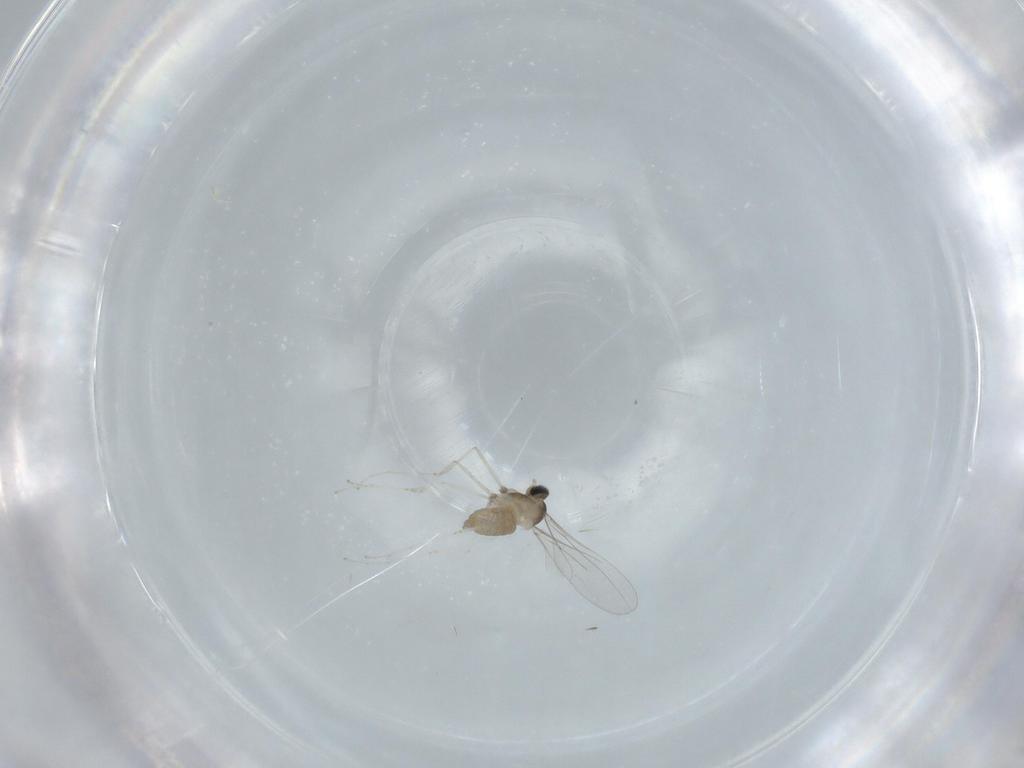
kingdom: Animalia
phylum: Arthropoda
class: Insecta
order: Diptera
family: Cecidomyiidae
